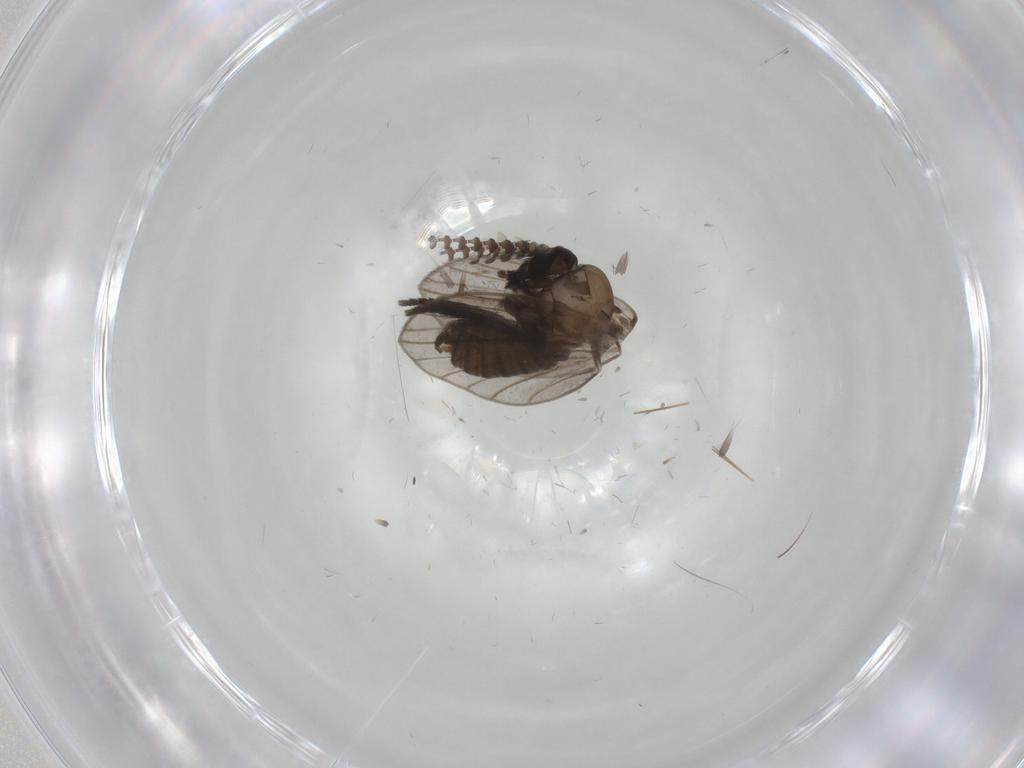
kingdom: Animalia
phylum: Arthropoda
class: Insecta
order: Diptera
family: Psychodidae
